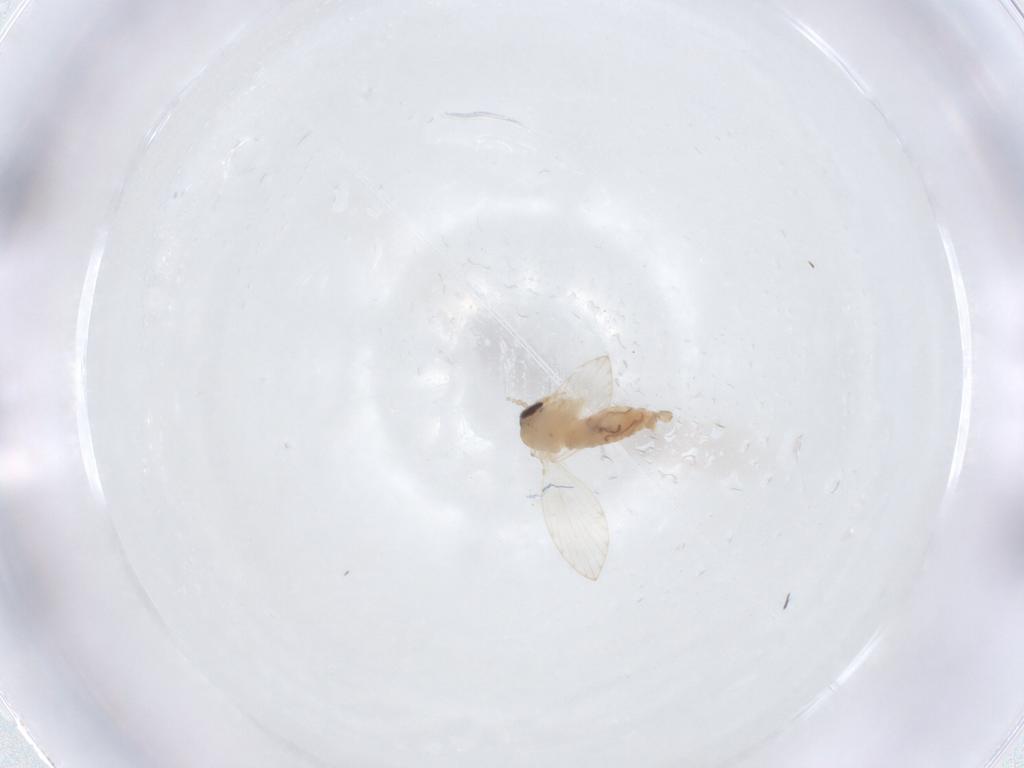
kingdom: Animalia
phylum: Arthropoda
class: Insecta
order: Diptera
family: Psychodidae
